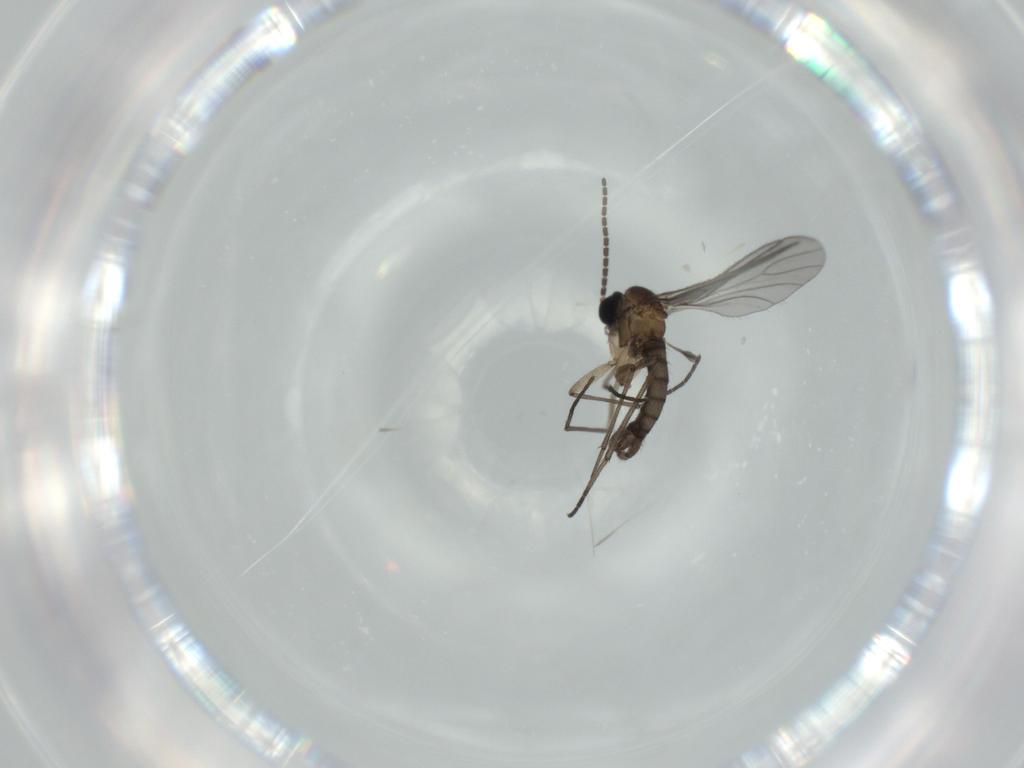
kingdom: Animalia
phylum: Arthropoda
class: Insecta
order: Diptera
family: Sciaridae
